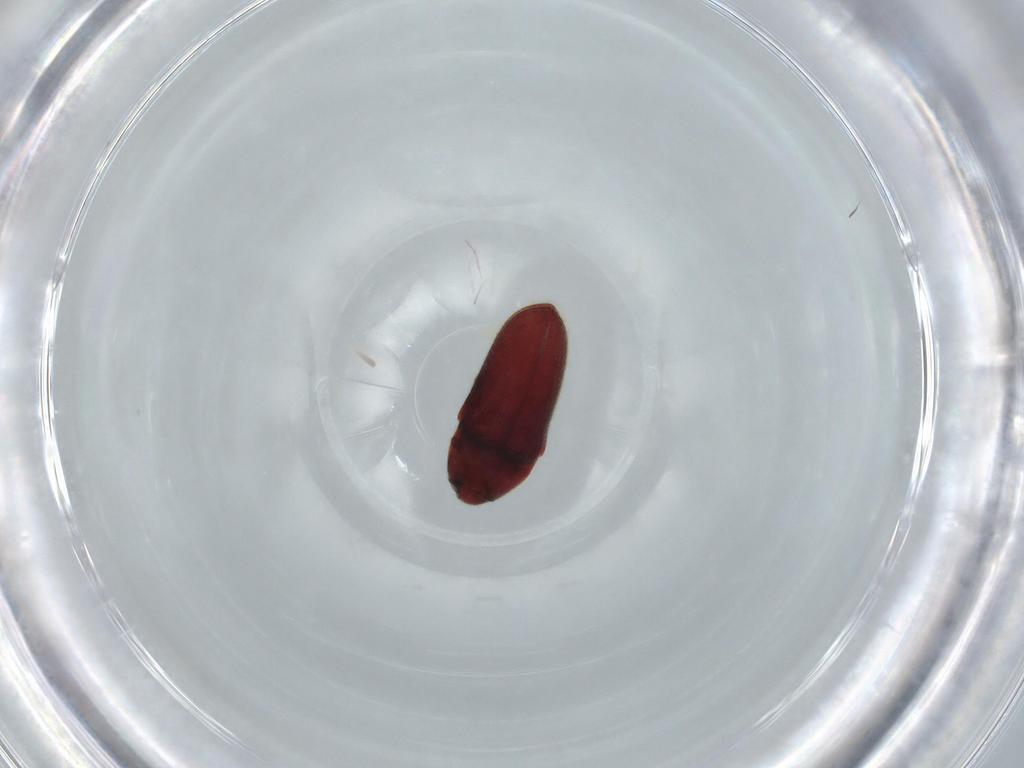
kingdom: Animalia
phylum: Arthropoda
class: Insecta
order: Coleoptera
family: Throscidae
